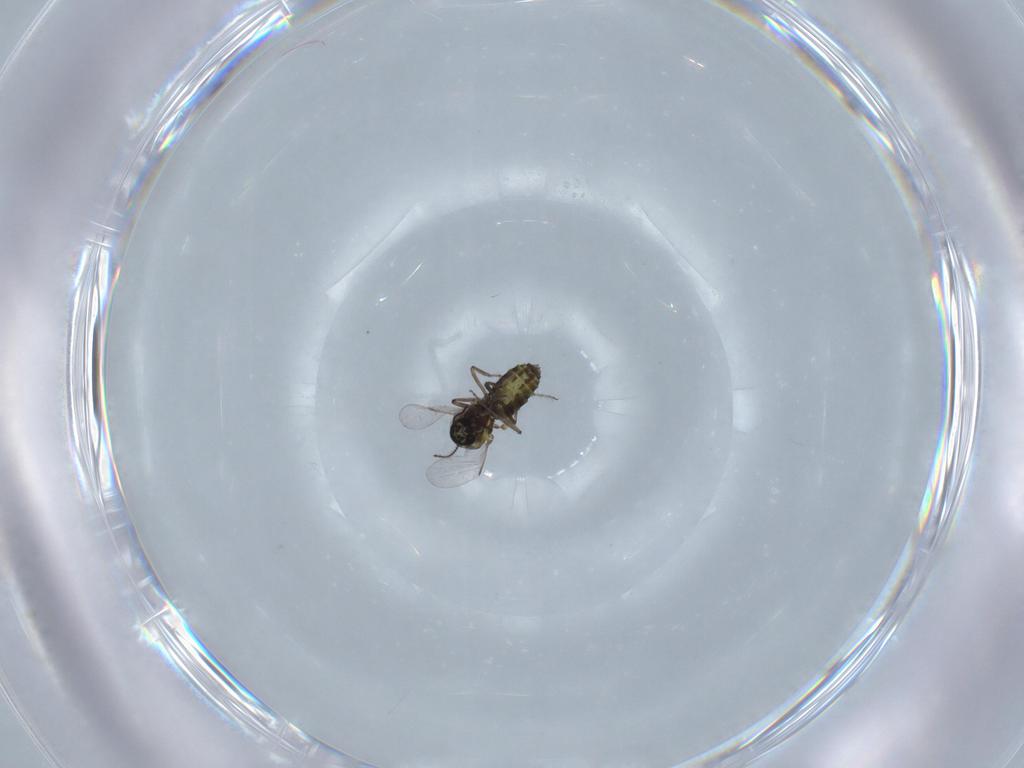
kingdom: Animalia
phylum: Arthropoda
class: Insecta
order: Diptera
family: Ceratopogonidae
